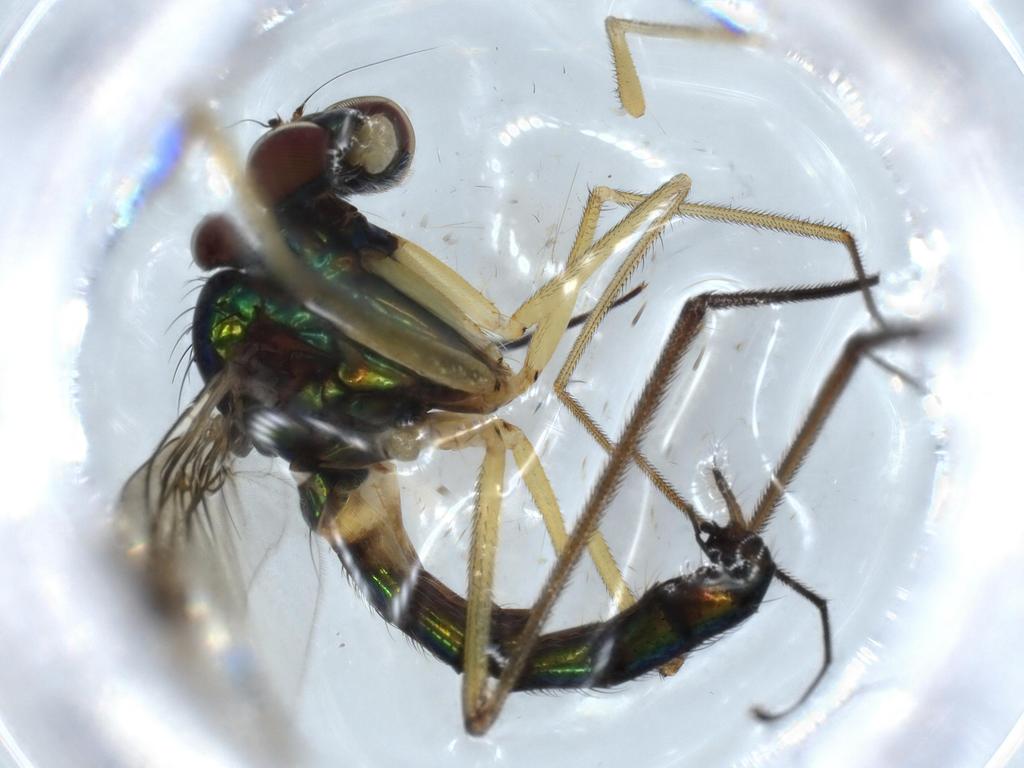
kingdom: Animalia
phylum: Arthropoda
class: Insecta
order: Diptera
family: Dolichopodidae
